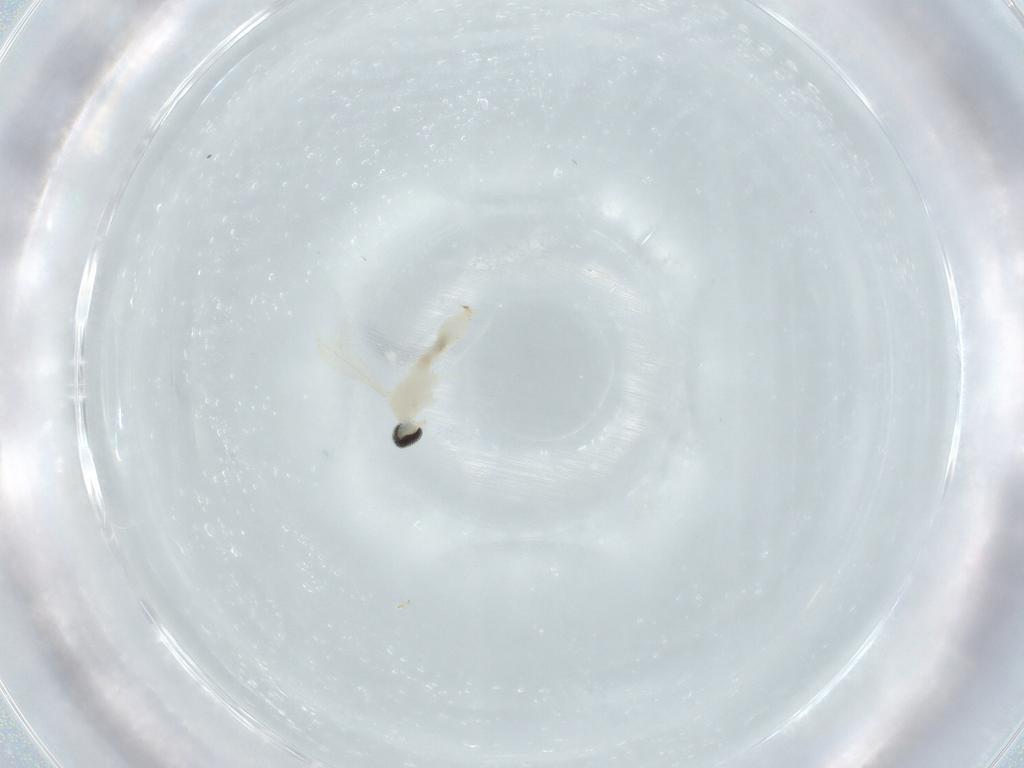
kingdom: Animalia
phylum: Arthropoda
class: Insecta
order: Diptera
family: Cecidomyiidae
